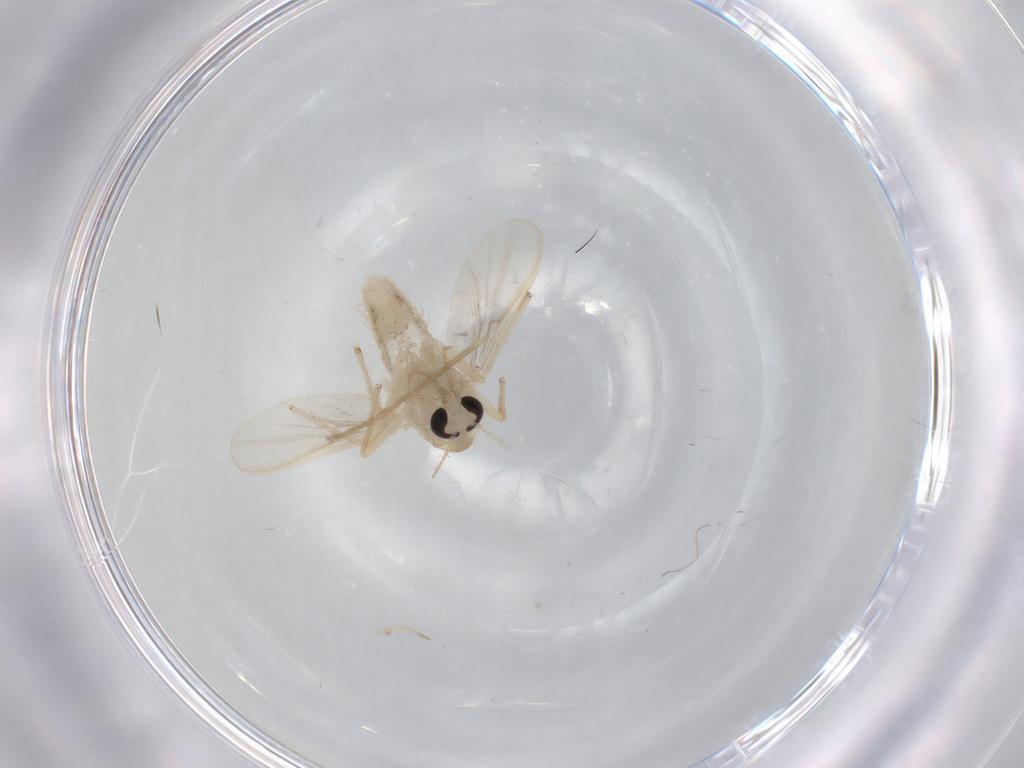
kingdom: Animalia
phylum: Arthropoda
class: Insecta
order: Diptera
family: Chironomidae
